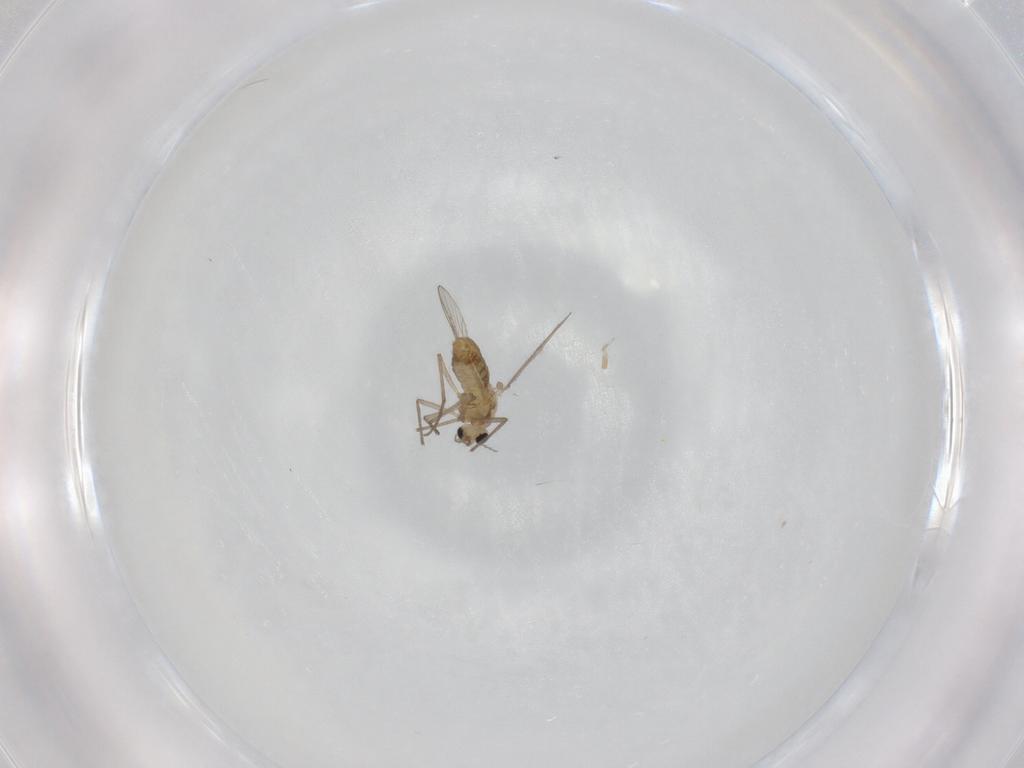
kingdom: Animalia
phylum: Arthropoda
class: Insecta
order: Diptera
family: Chironomidae
